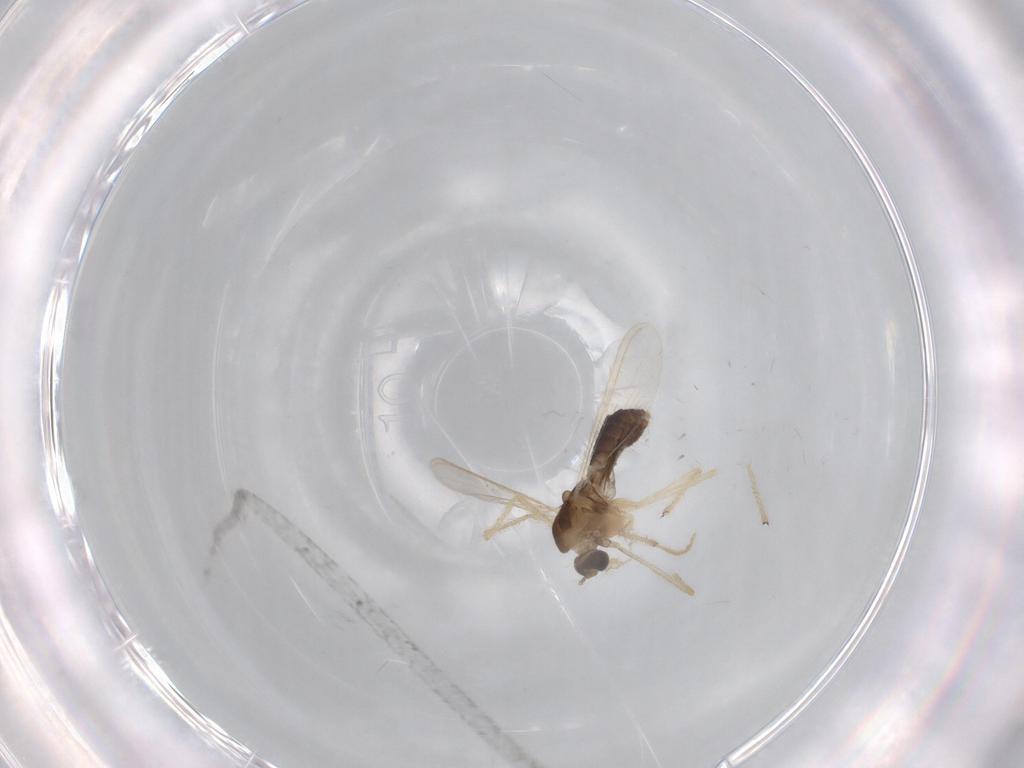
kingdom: Animalia
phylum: Arthropoda
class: Insecta
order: Diptera
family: Chironomidae
